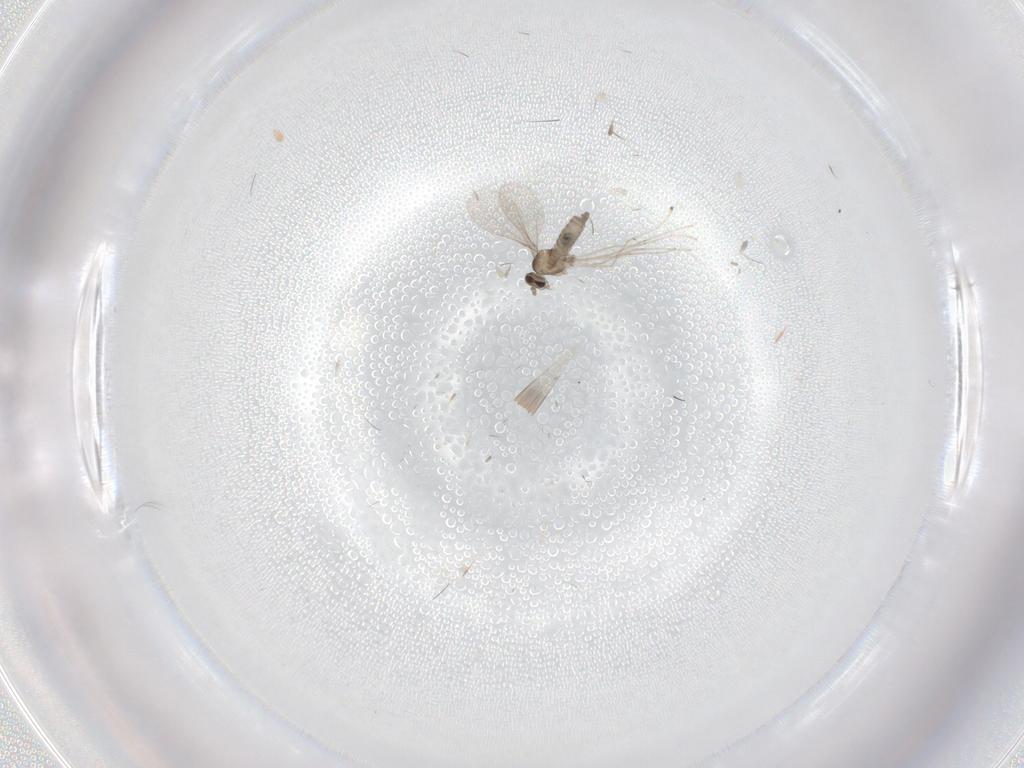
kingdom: Animalia
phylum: Arthropoda
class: Insecta
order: Diptera
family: Cecidomyiidae
